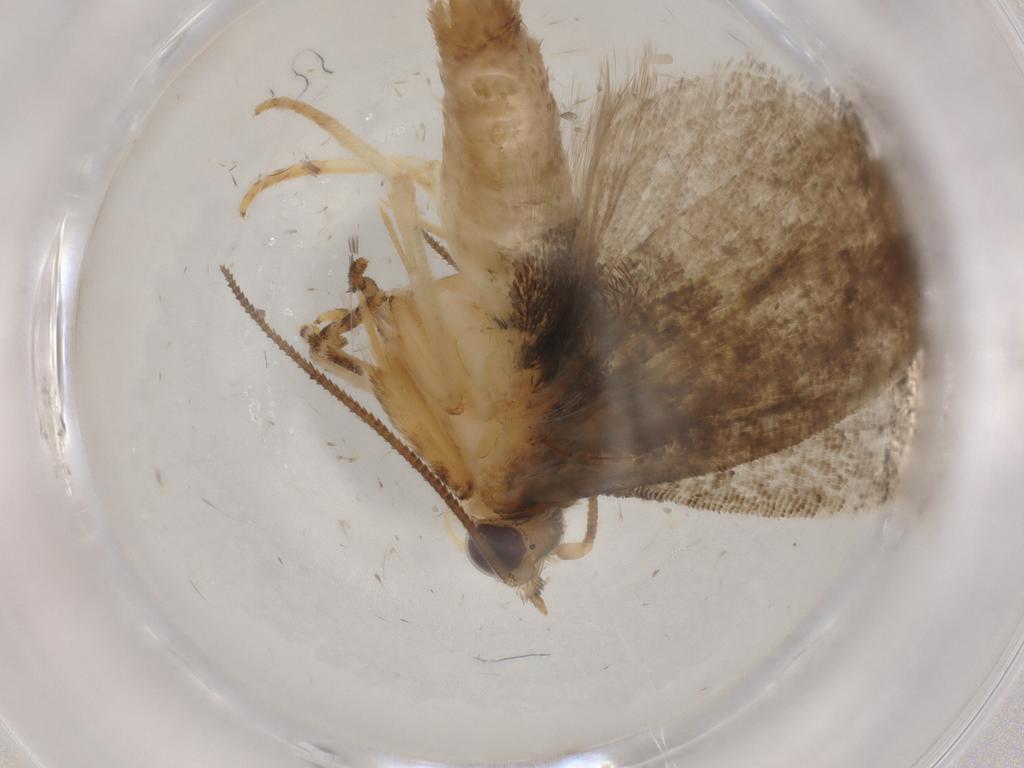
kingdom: Animalia
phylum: Arthropoda
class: Insecta
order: Lepidoptera
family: Tortricidae
